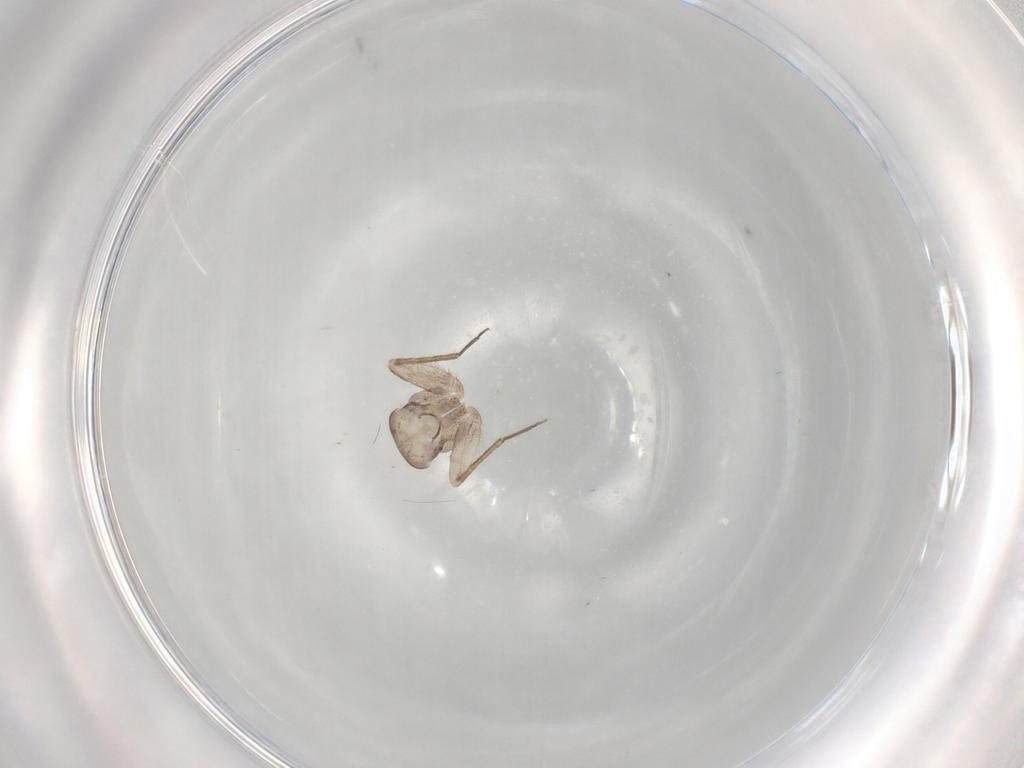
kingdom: Animalia
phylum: Arthropoda
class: Insecta
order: Psocodea
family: Lepidopsocidae
